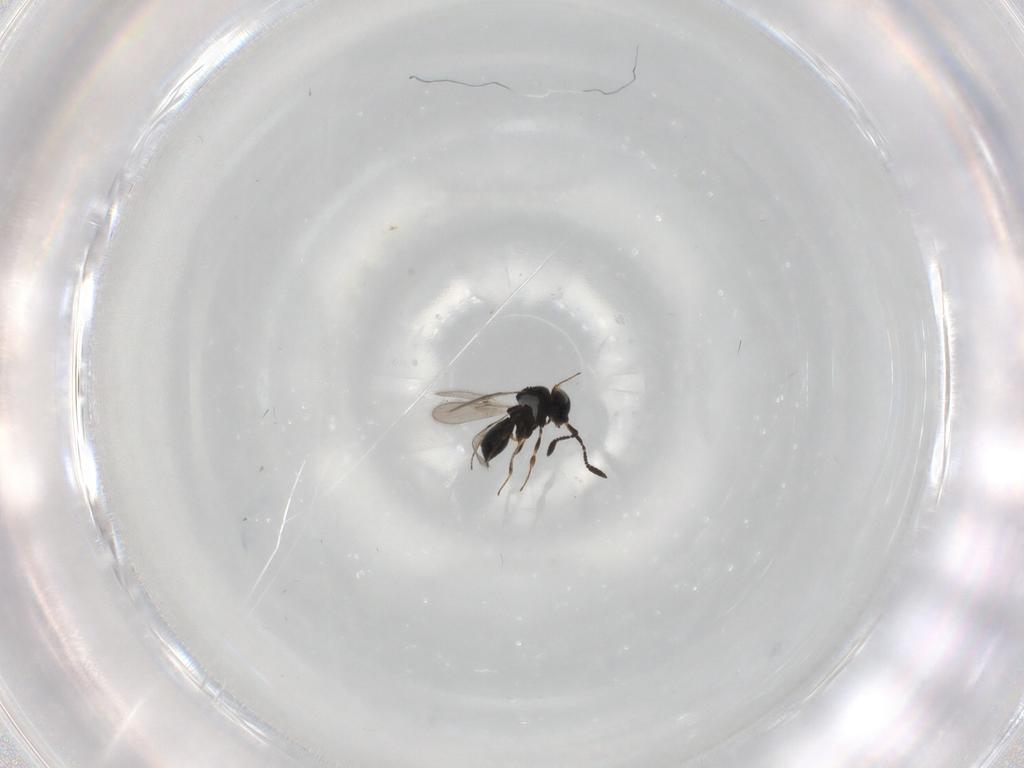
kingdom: Animalia
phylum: Arthropoda
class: Insecta
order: Hymenoptera
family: Scelionidae
